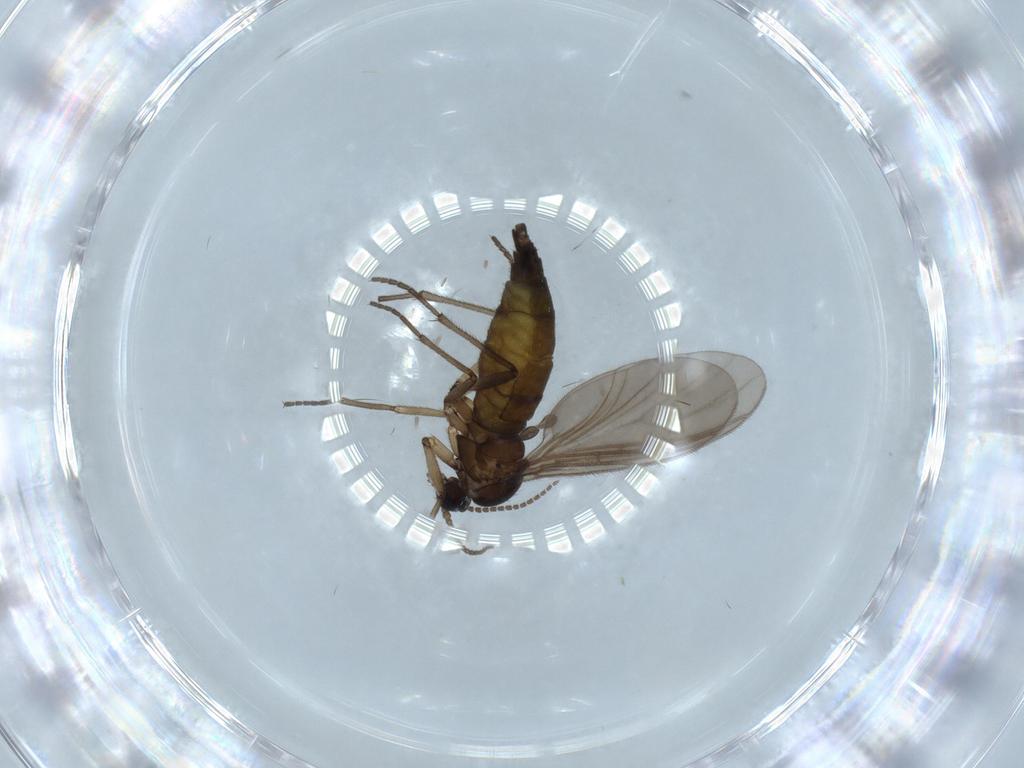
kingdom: Animalia
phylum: Arthropoda
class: Insecta
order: Diptera
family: Sciaridae
